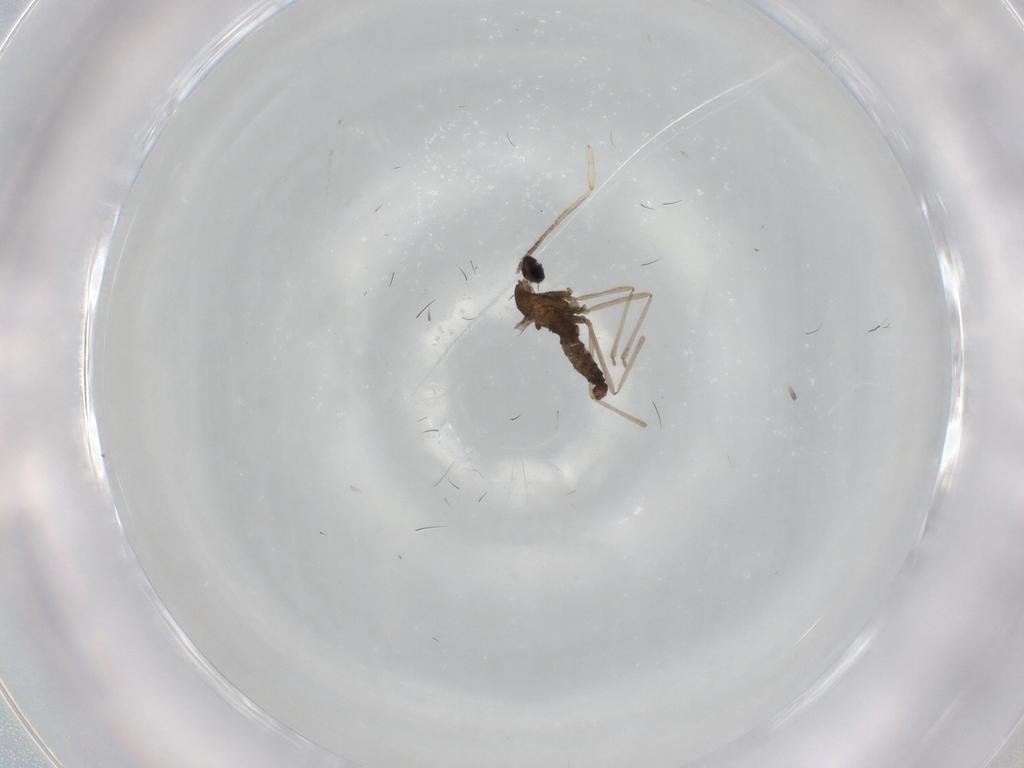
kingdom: Animalia
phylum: Arthropoda
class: Insecta
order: Diptera
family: Cecidomyiidae
